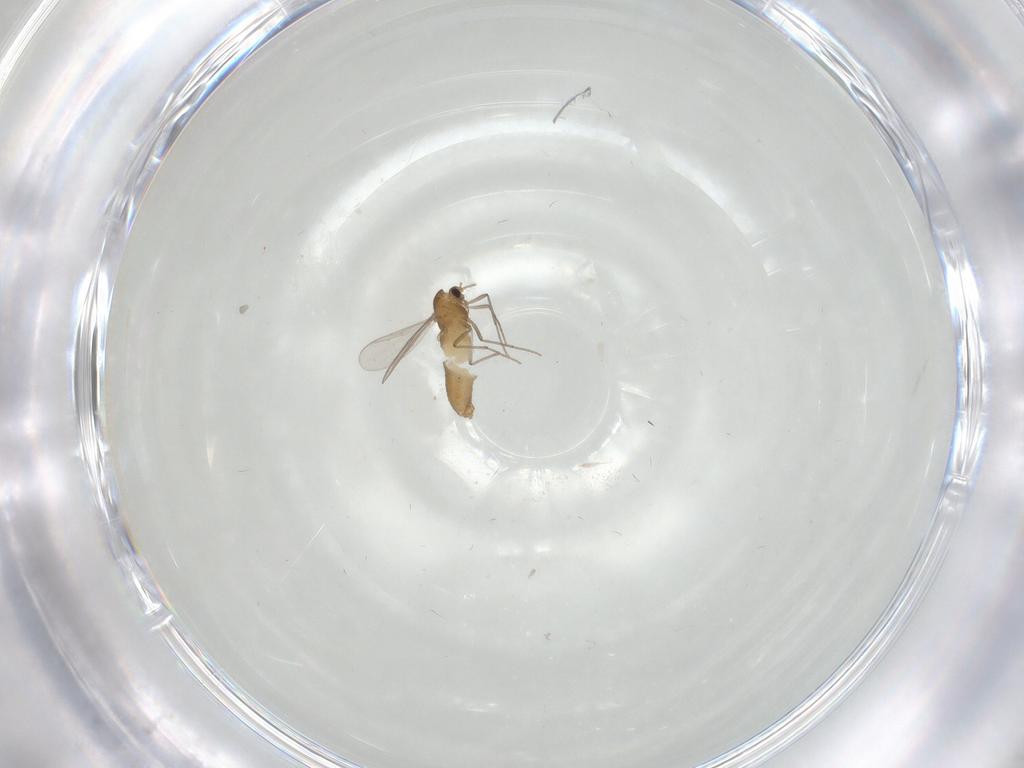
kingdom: Animalia
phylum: Arthropoda
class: Insecta
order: Diptera
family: Chironomidae
